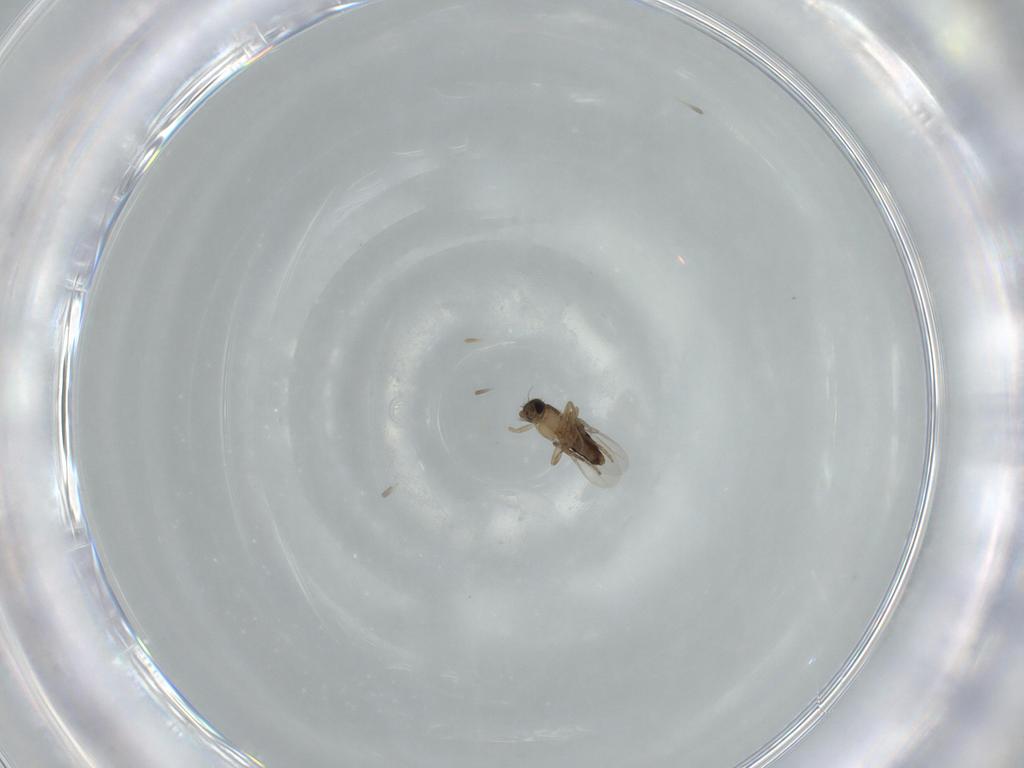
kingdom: Animalia
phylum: Arthropoda
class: Insecta
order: Diptera
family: Phoridae
